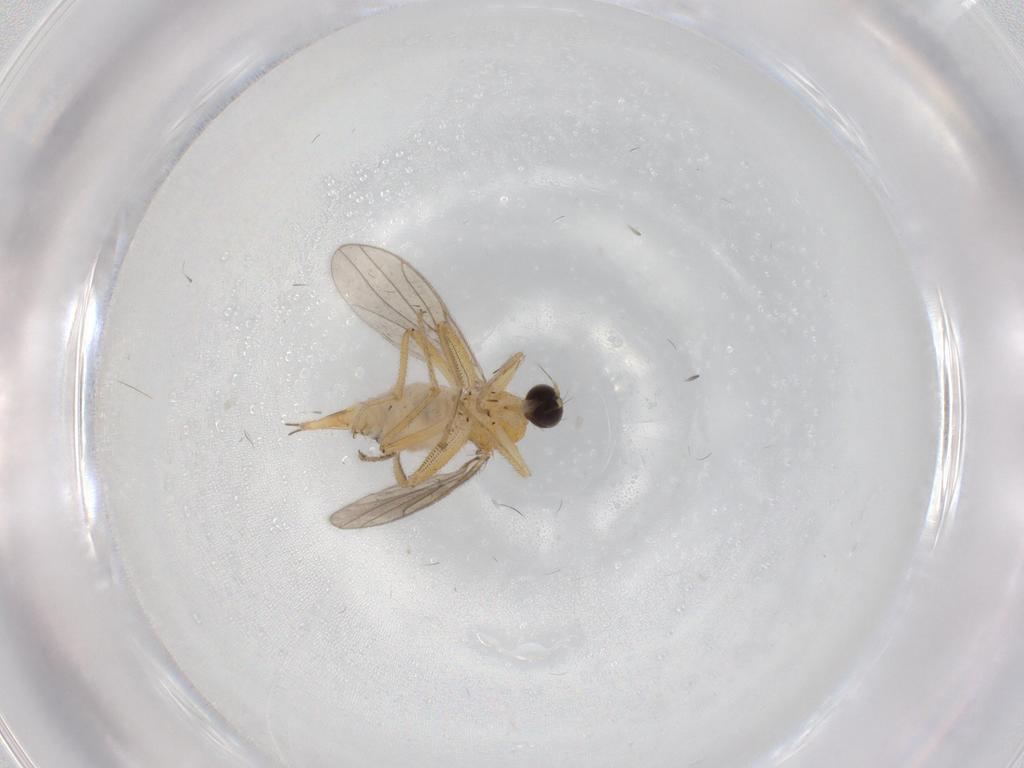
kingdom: Animalia
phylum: Arthropoda
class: Insecta
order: Diptera
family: Hybotidae
